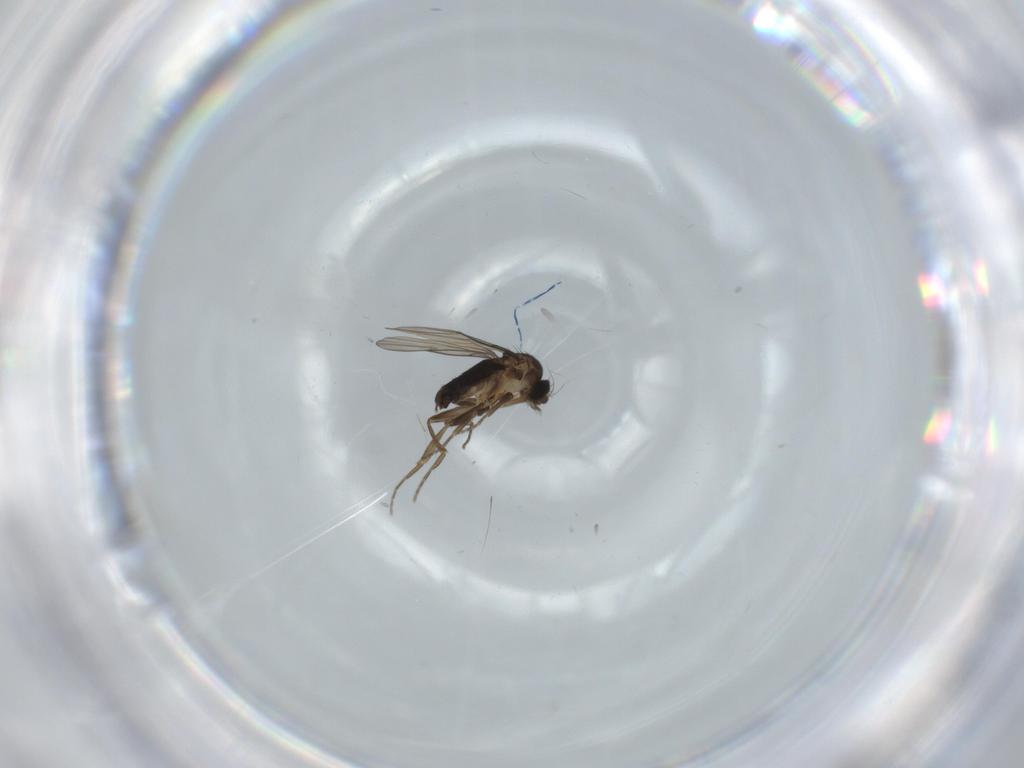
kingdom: Animalia
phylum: Arthropoda
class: Insecta
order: Diptera
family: Phoridae
